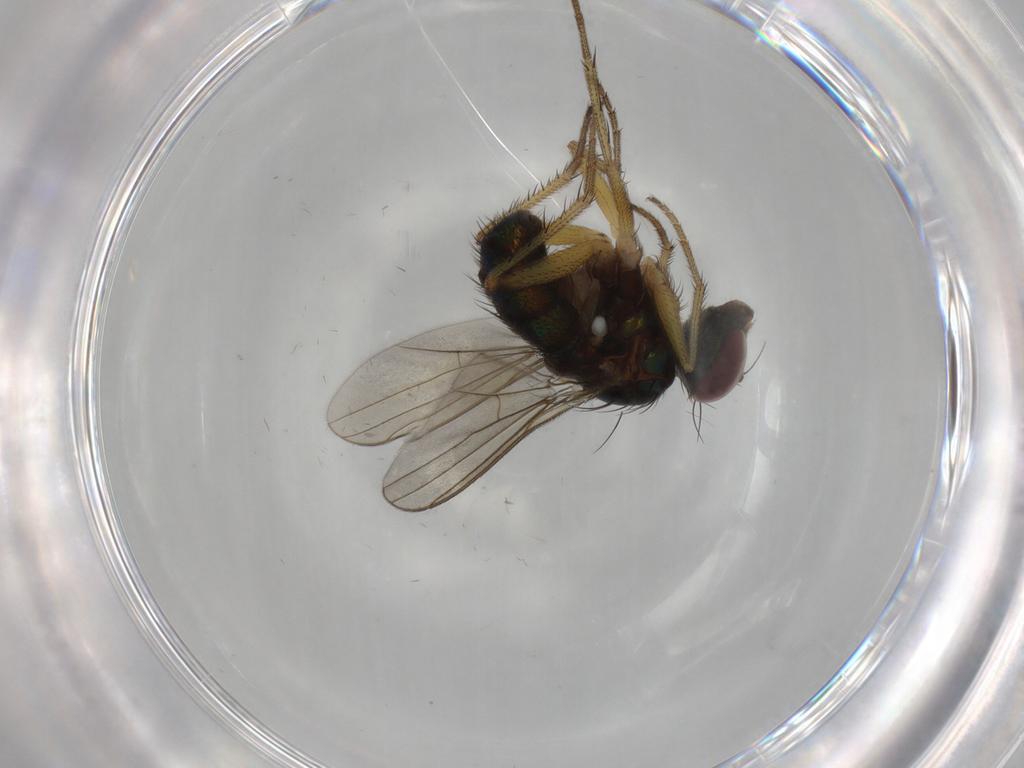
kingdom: Animalia
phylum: Arthropoda
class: Insecta
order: Diptera
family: Dolichopodidae
